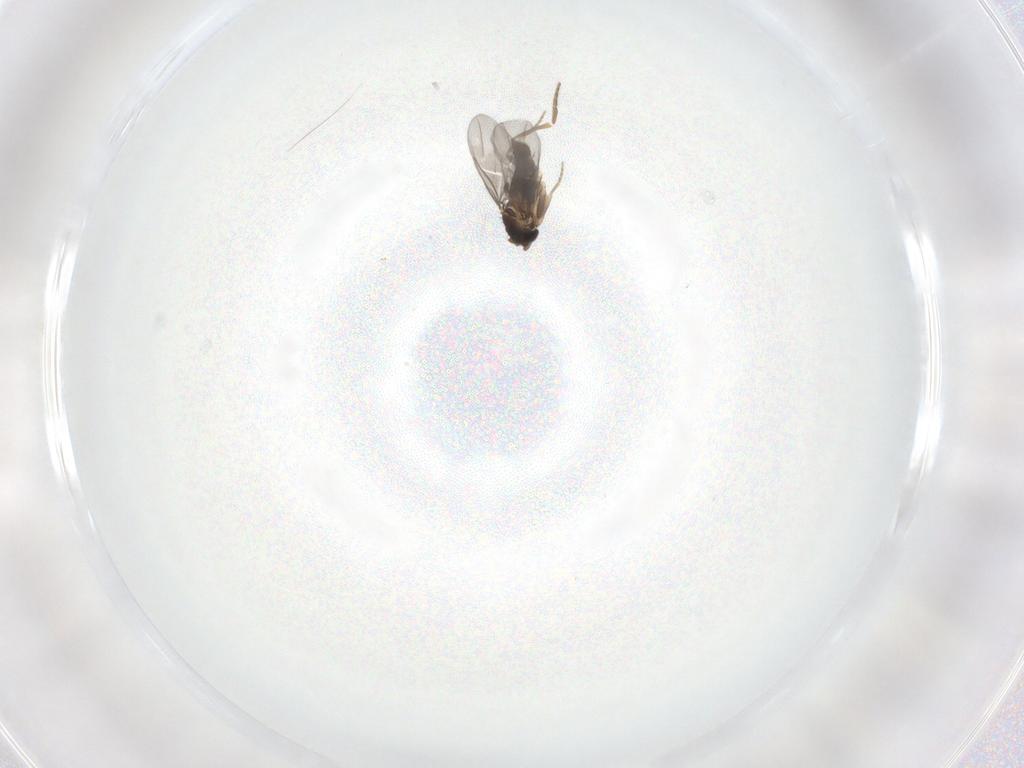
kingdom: Animalia
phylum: Arthropoda
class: Insecta
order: Diptera
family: Cecidomyiidae
